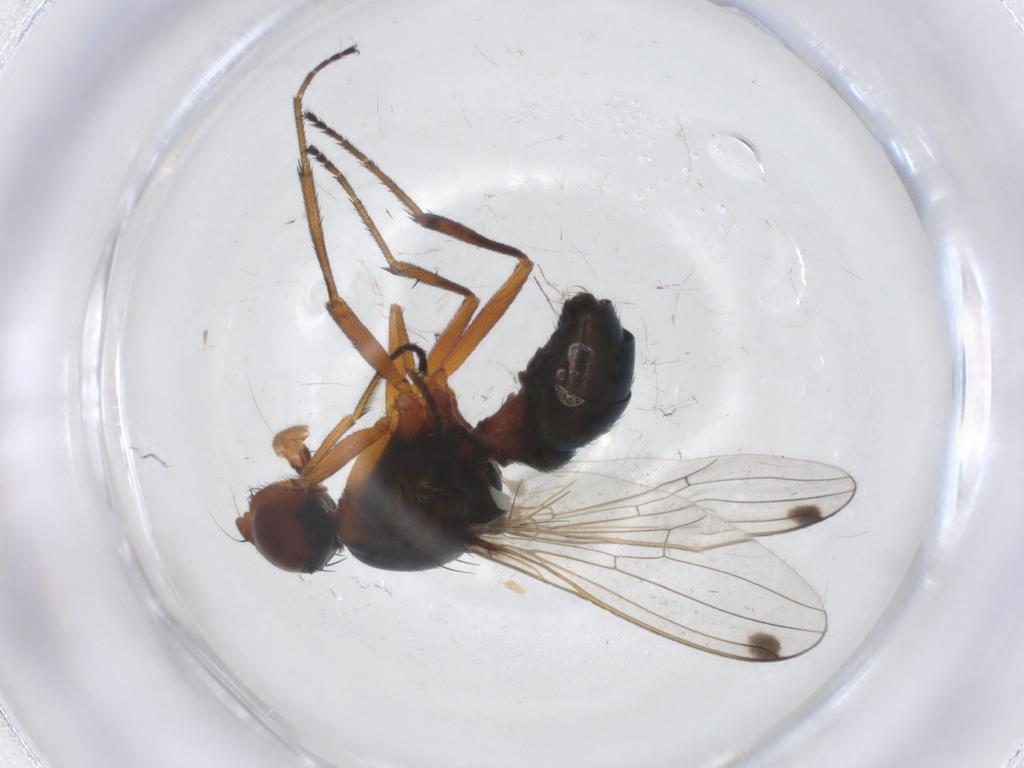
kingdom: Animalia
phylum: Arthropoda
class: Insecta
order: Diptera
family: Sepsidae
